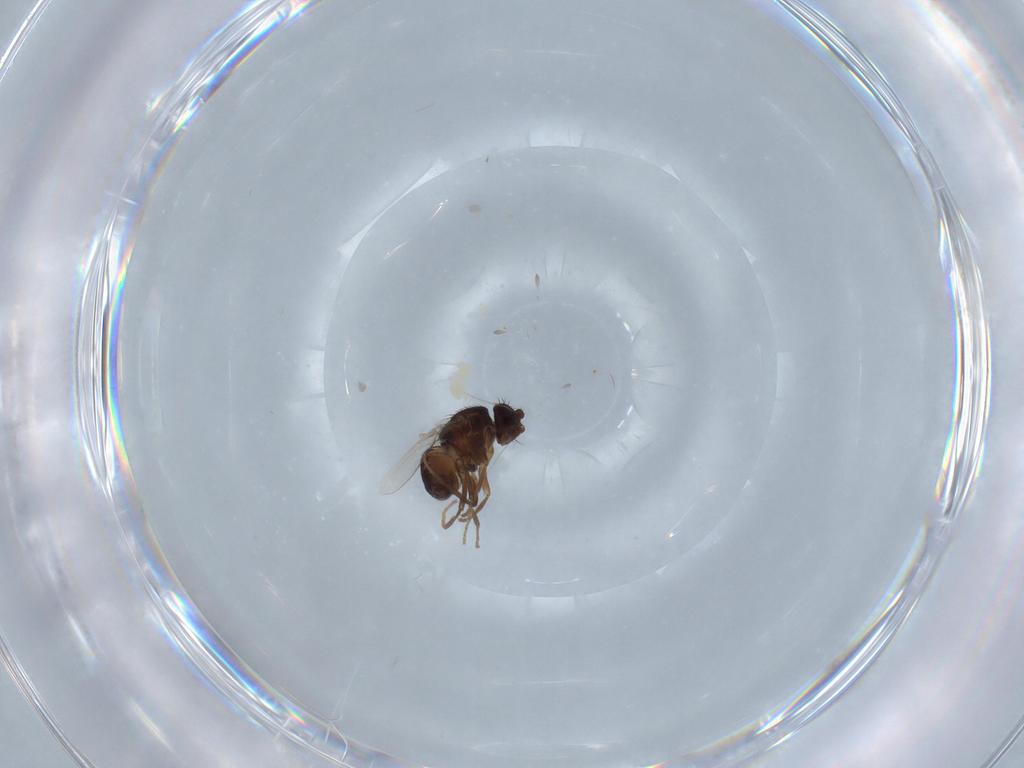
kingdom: Animalia
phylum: Arthropoda
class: Insecta
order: Diptera
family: Sphaeroceridae
